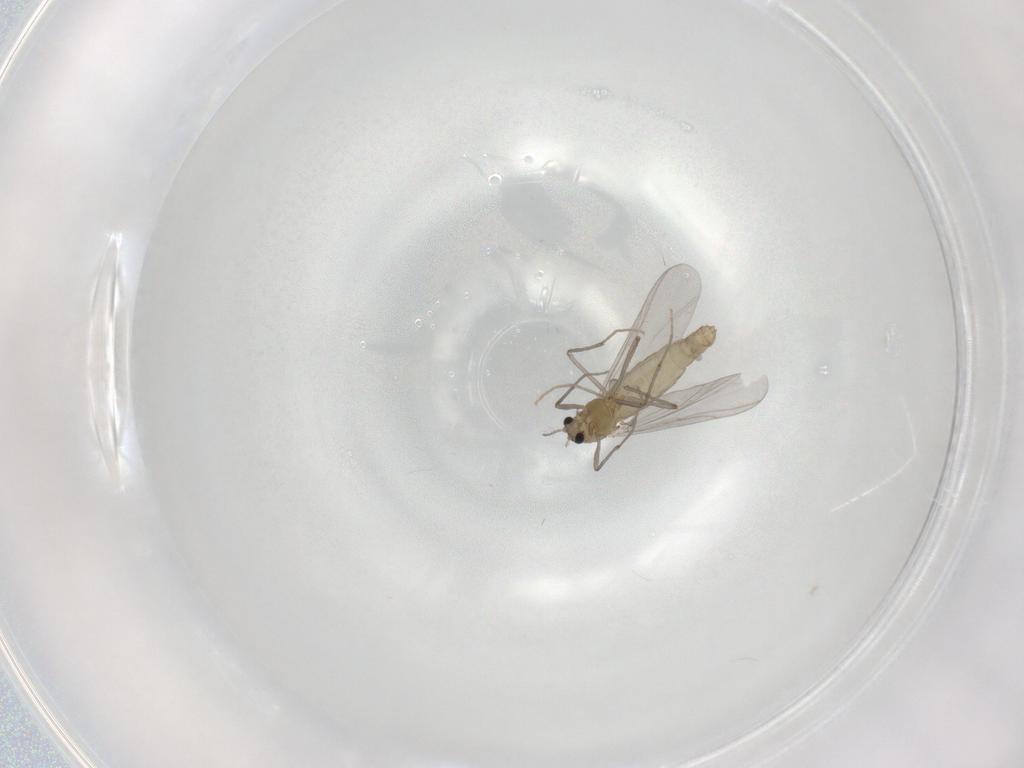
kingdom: Animalia
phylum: Arthropoda
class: Insecta
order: Diptera
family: Chironomidae
